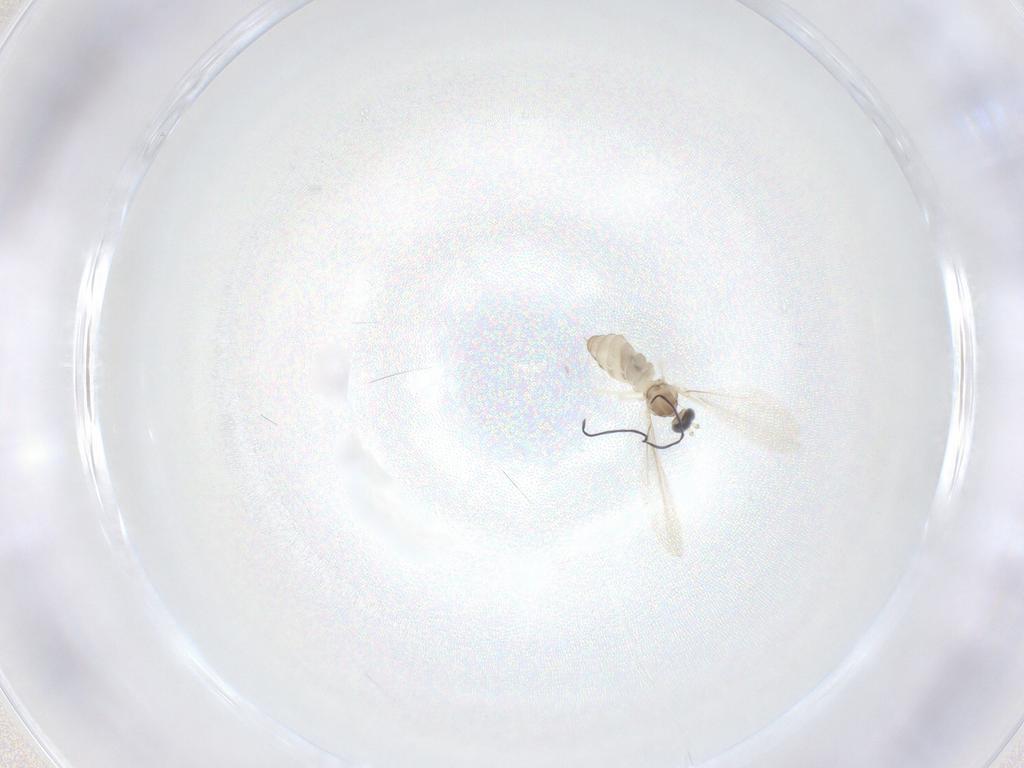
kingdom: Animalia
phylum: Arthropoda
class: Insecta
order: Diptera
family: Cecidomyiidae
